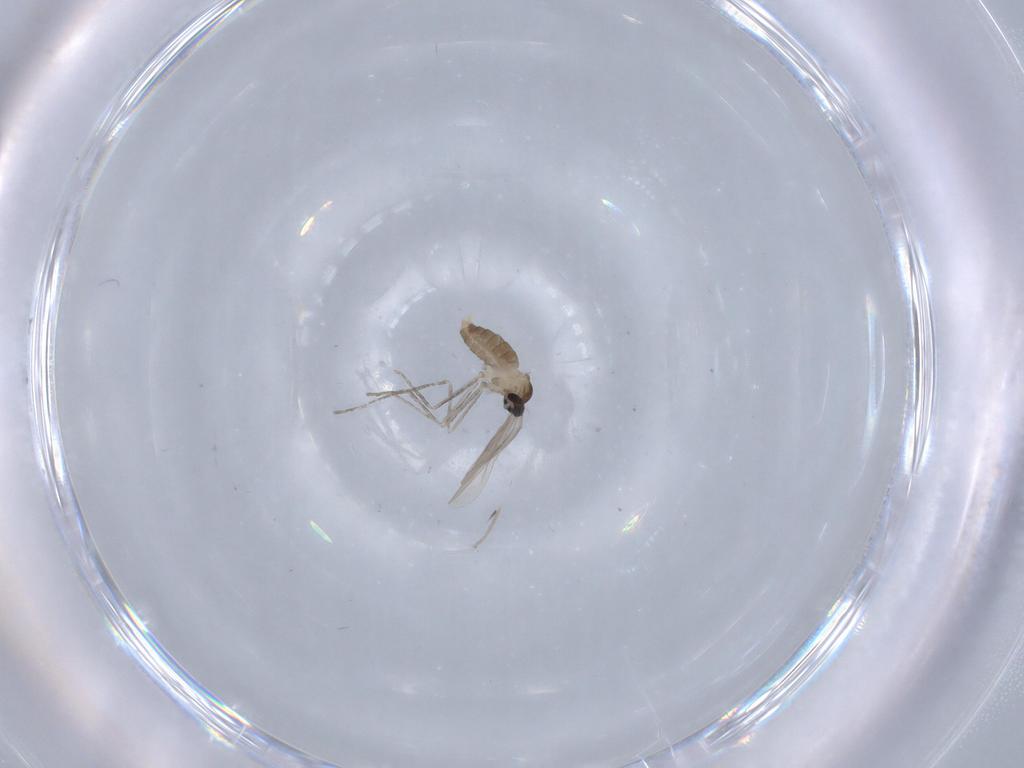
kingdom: Animalia
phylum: Arthropoda
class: Insecta
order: Diptera
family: Cecidomyiidae
